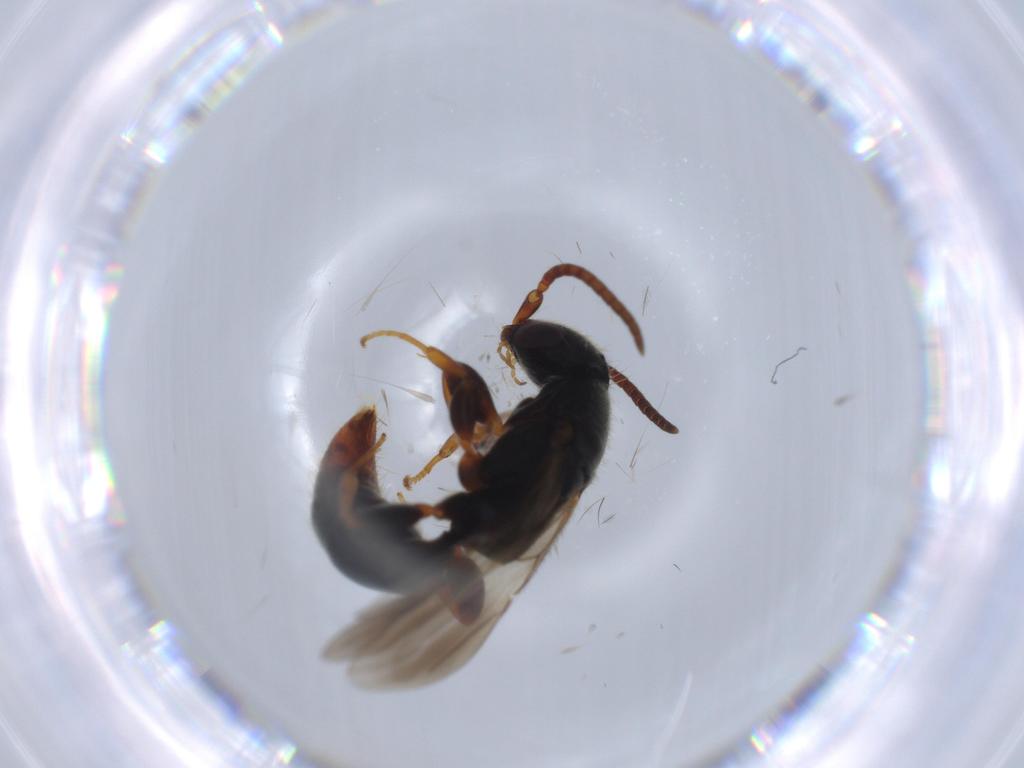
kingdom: Animalia
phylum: Arthropoda
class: Insecta
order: Hymenoptera
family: Bethylidae
